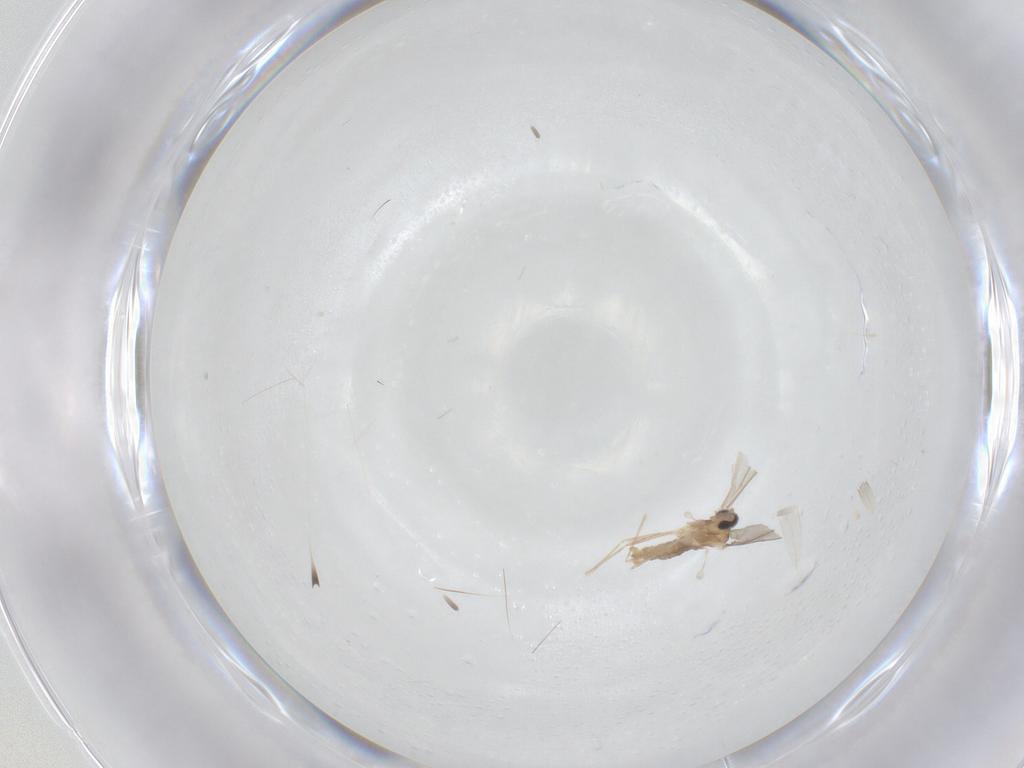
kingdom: Animalia
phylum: Arthropoda
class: Insecta
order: Diptera
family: Cecidomyiidae
